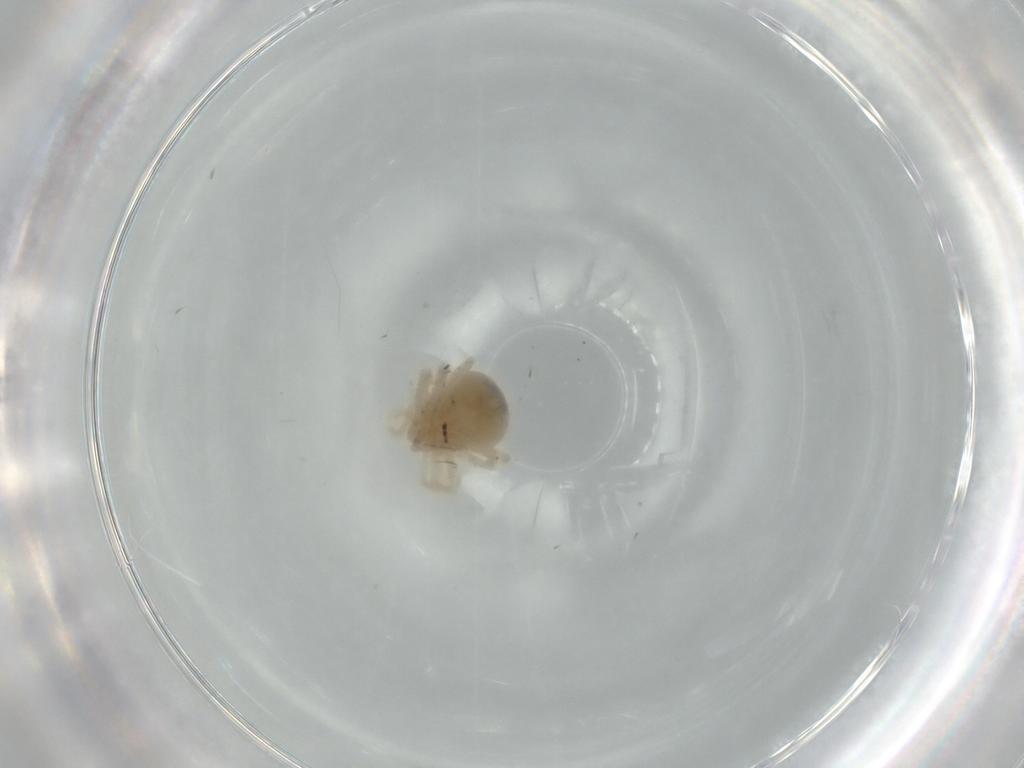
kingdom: Animalia
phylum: Arthropoda
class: Arachnida
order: Trombidiformes
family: Anystidae
